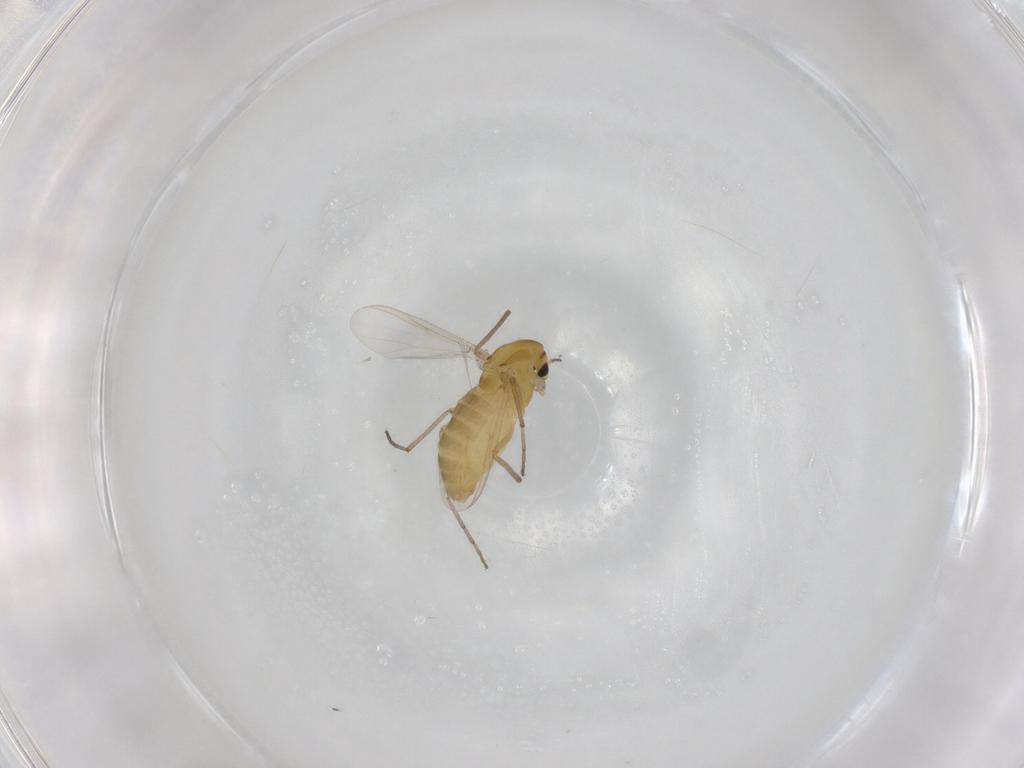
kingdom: Animalia
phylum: Arthropoda
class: Insecta
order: Diptera
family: Chironomidae
